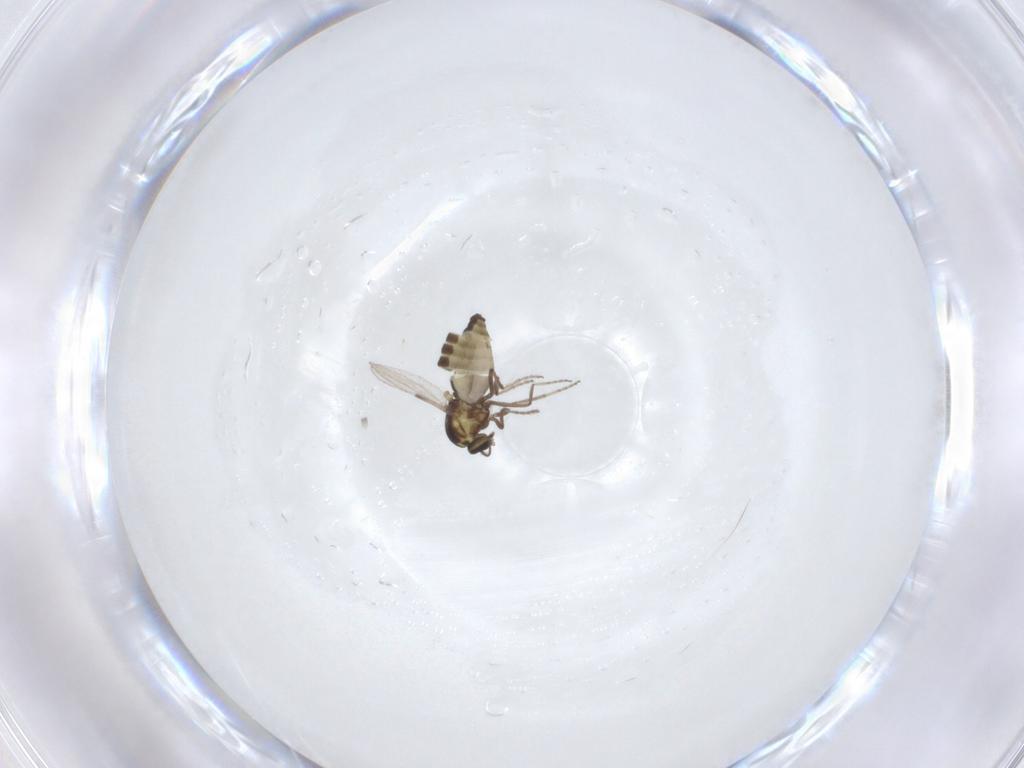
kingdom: Animalia
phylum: Arthropoda
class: Insecta
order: Diptera
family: Ceratopogonidae
